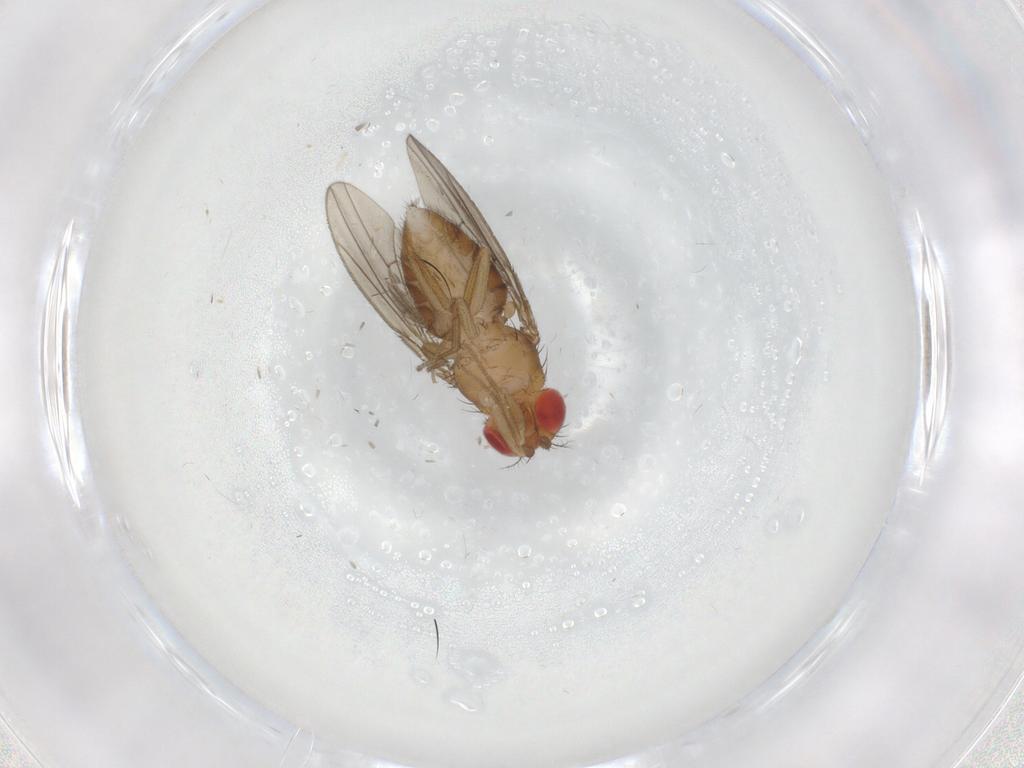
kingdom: Animalia
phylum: Arthropoda
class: Insecta
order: Diptera
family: Drosophilidae
